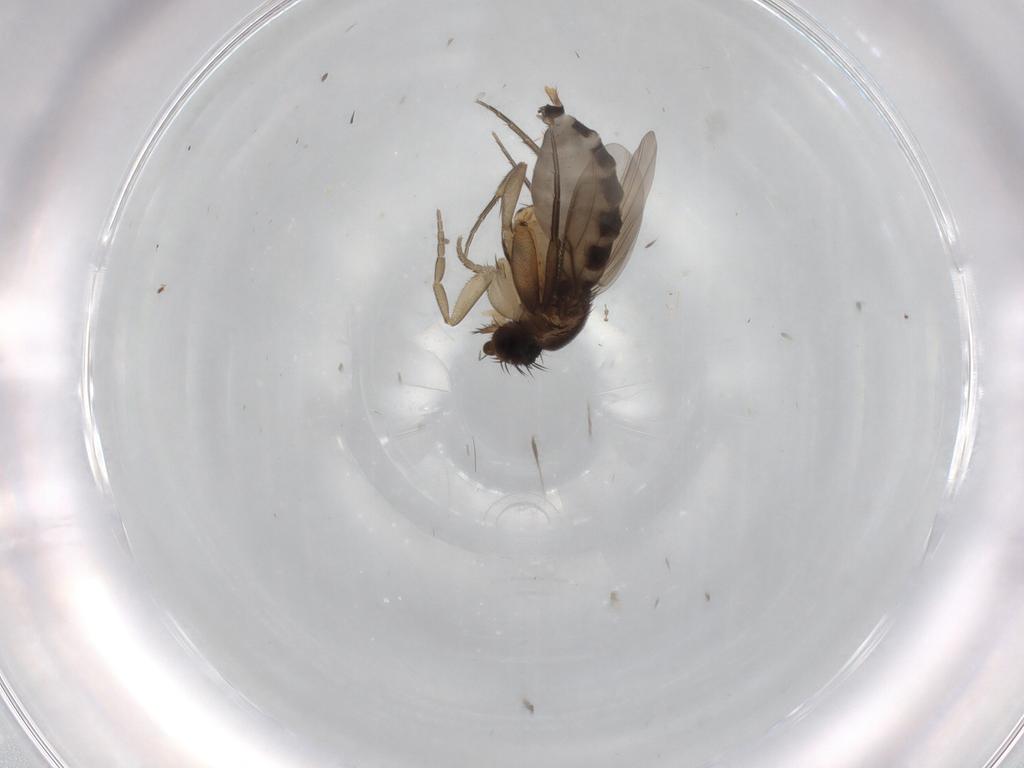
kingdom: Animalia
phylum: Arthropoda
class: Insecta
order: Diptera
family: Phoridae
